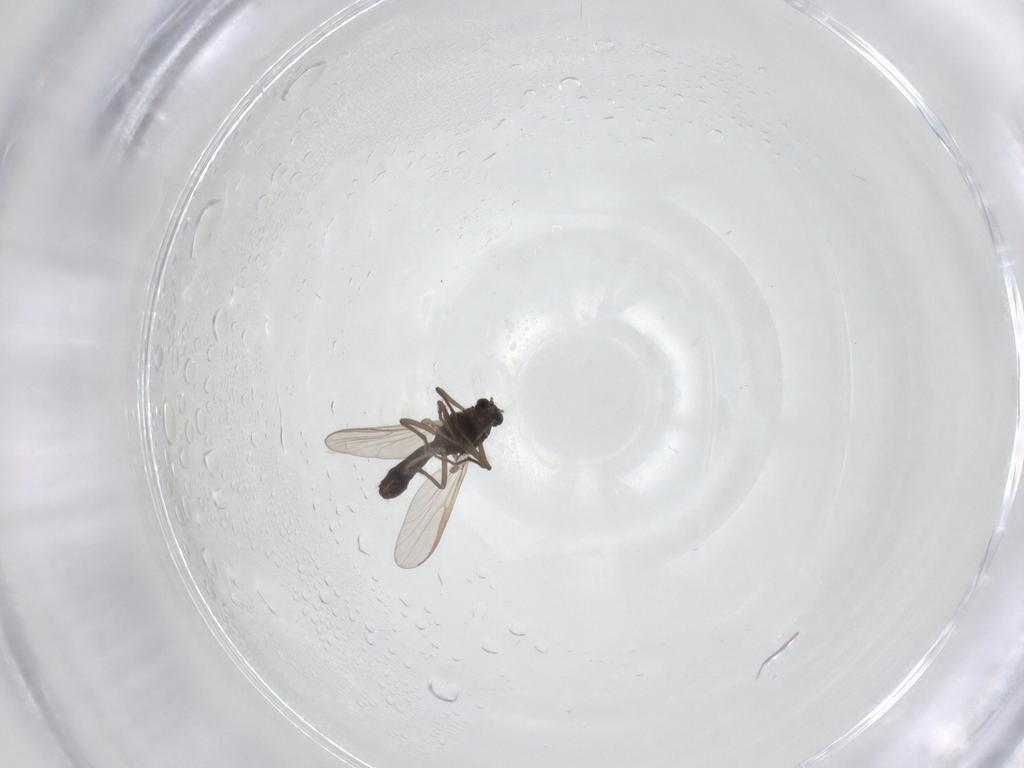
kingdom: Animalia
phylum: Arthropoda
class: Insecta
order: Diptera
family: Chironomidae
